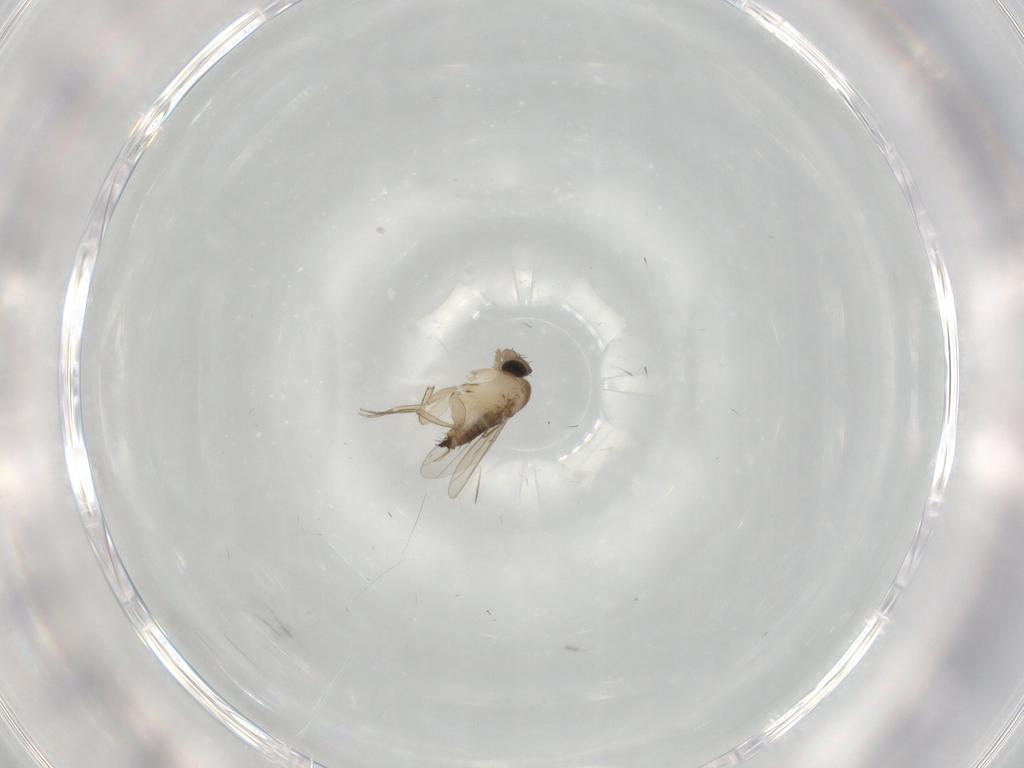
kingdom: Animalia
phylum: Arthropoda
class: Insecta
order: Diptera
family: Phoridae
